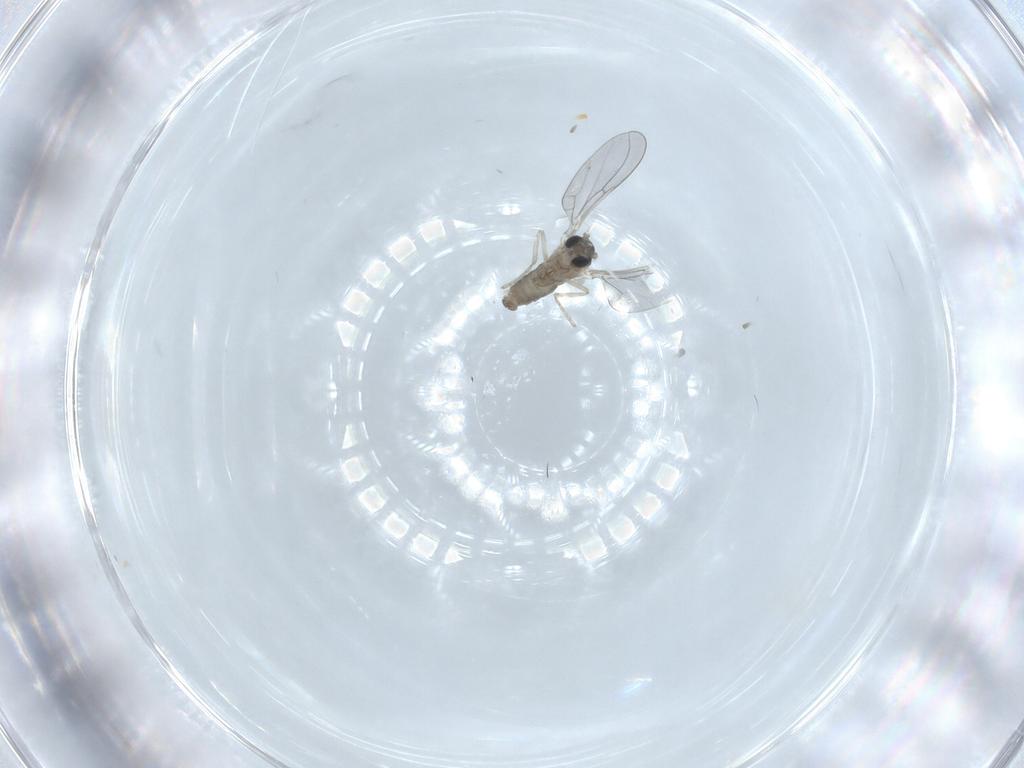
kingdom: Animalia
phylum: Arthropoda
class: Insecta
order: Diptera
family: Cecidomyiidae
